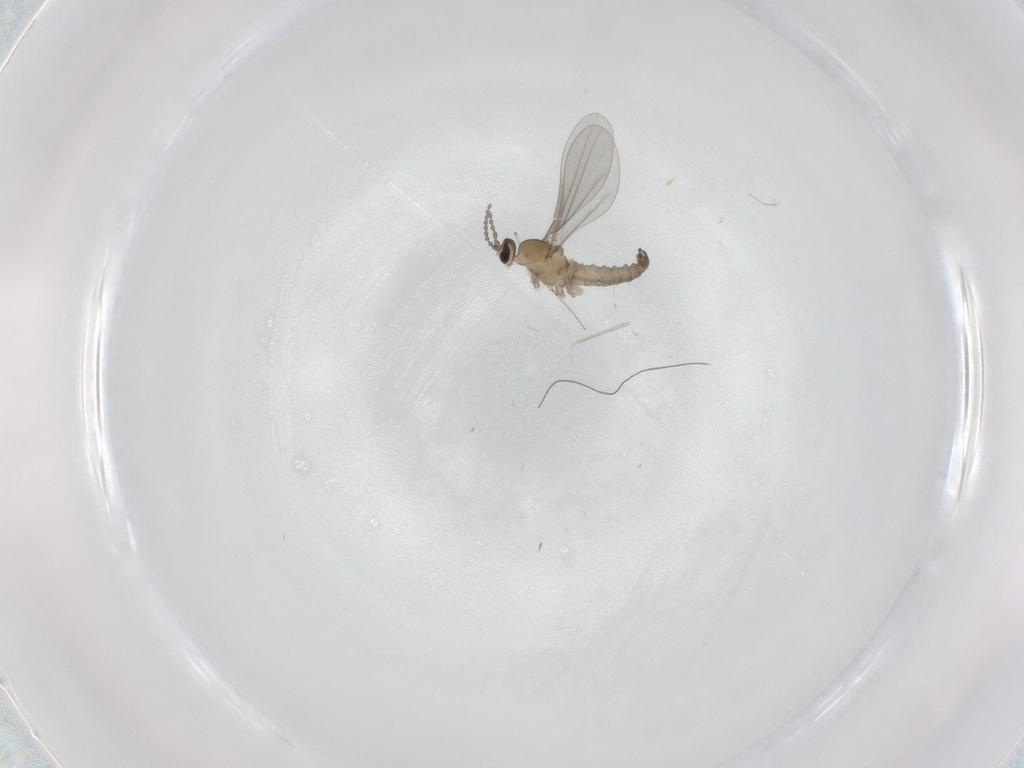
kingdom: Animalia
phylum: Arthropoda
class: Insecta
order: Diptera
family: Cecidomyiidae
